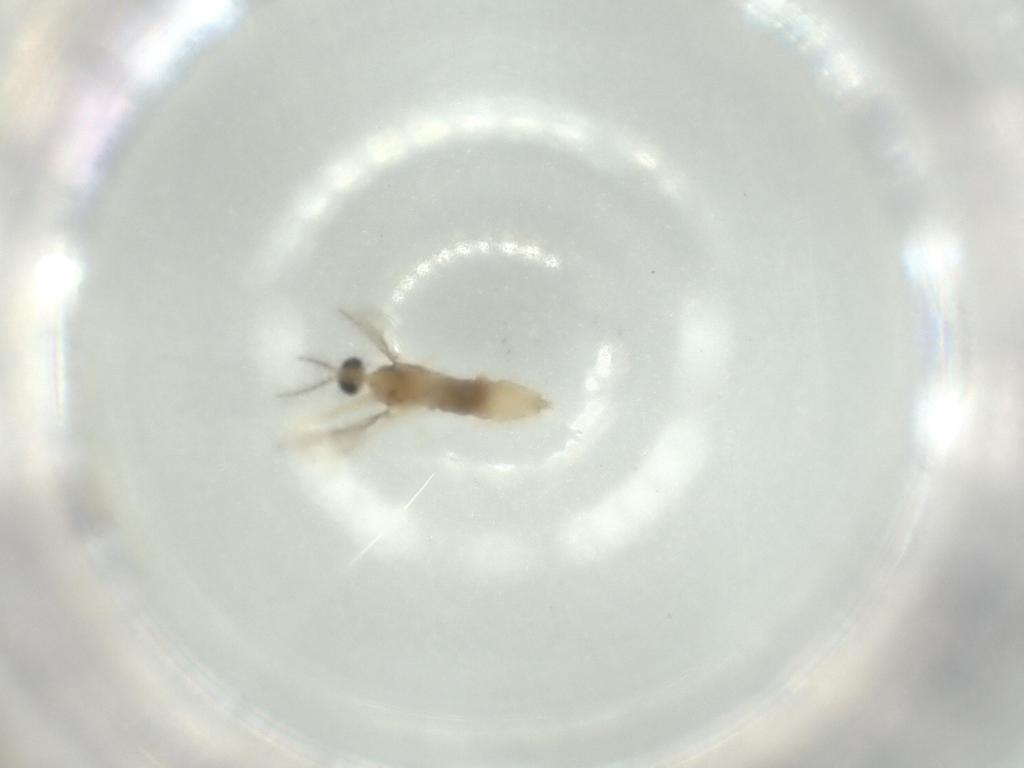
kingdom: Animalia
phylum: Arthropoda
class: Insecta
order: Diptera
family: Cecidomyiidae
